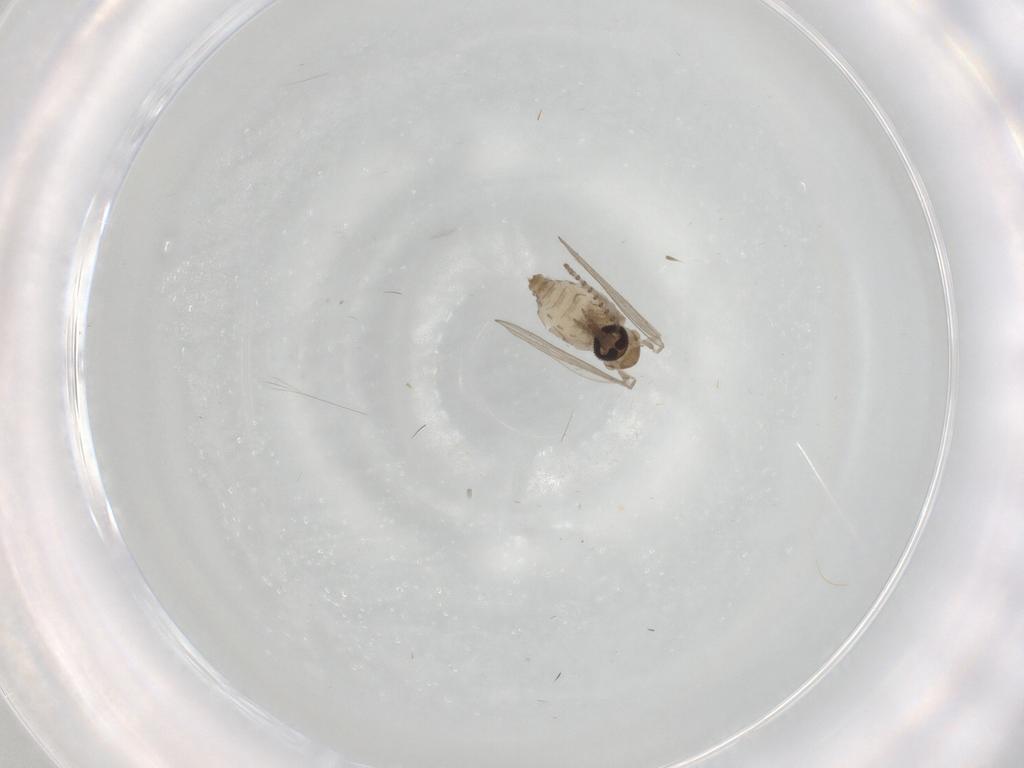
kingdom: Animalia
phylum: Arthropoda
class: Insecta
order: Diptera
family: Psychodidae
